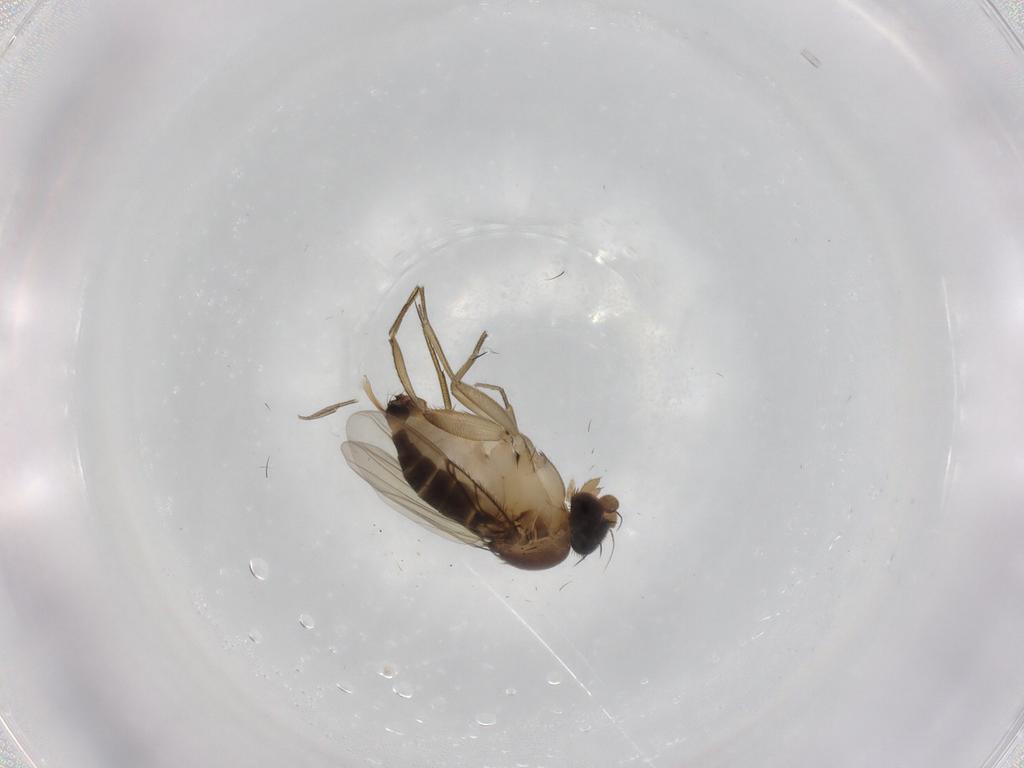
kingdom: Animalia
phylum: Arthropoda
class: Insecta
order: Diptera
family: Phoridae
